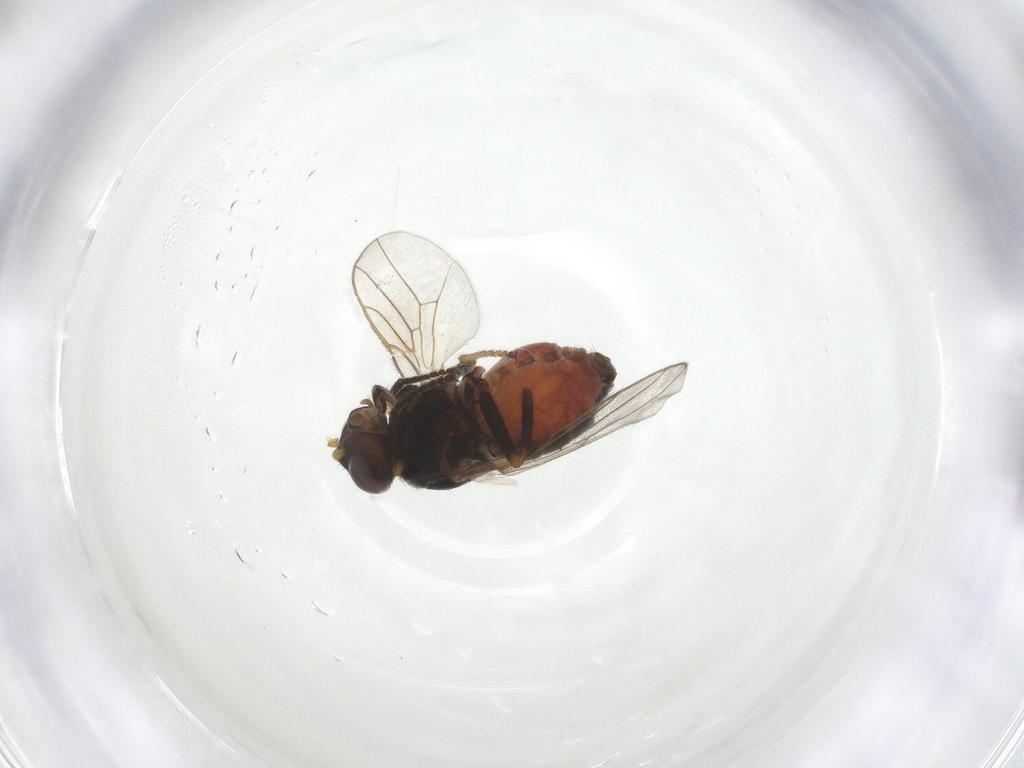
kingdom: Animalia
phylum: Arthropoda
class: Insecta
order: Diptera
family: Chloropidae
